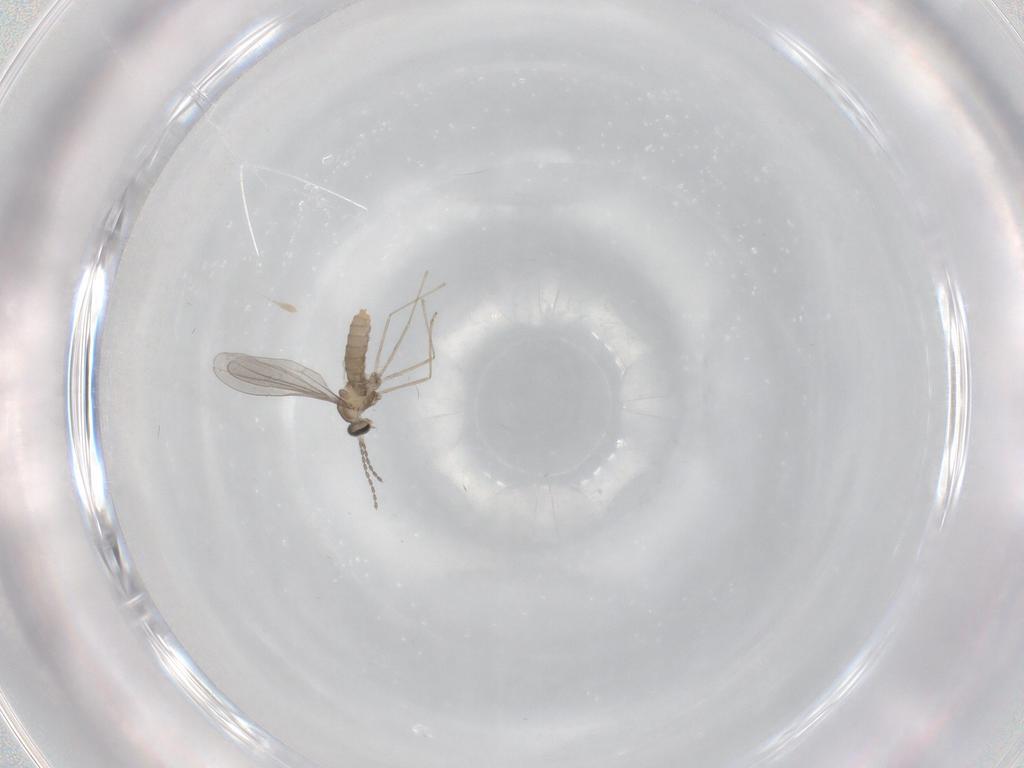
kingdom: Animalia
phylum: Arthropoda
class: Insecta
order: Diptera
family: Cecidomyiidae
